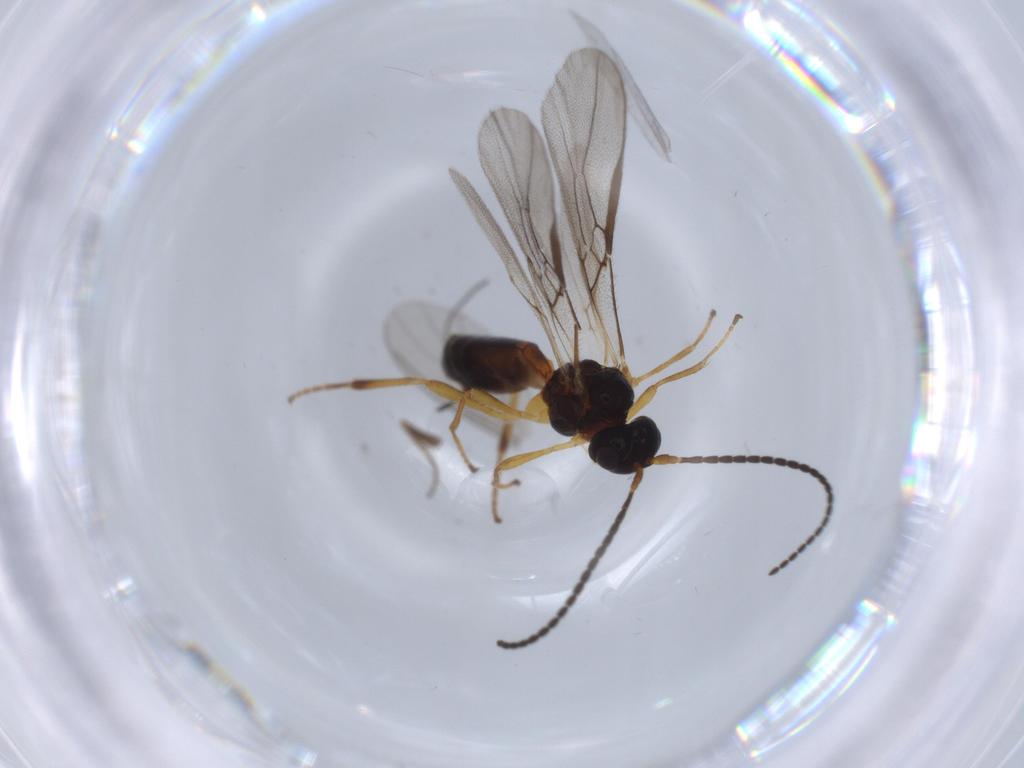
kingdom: Animalia
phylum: Arthropoda
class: Insecta
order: Hymenoptera
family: Braconidae
